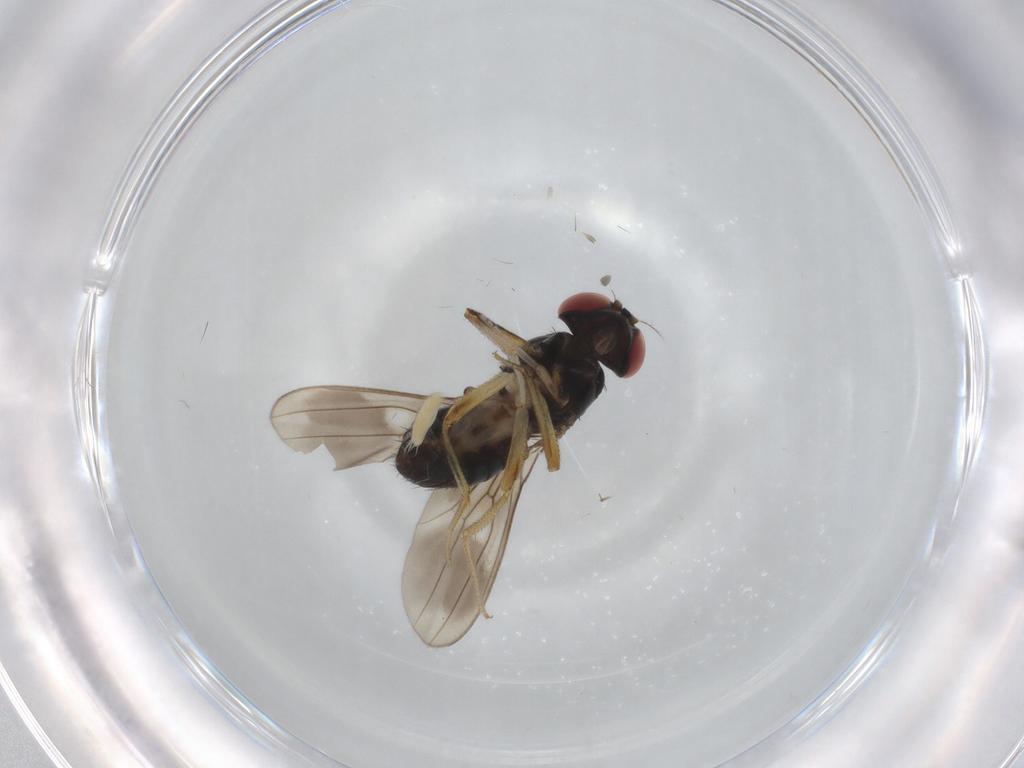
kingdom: Animalia
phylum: Arthropoda
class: Insecta
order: Diptera
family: Drosophilidae
